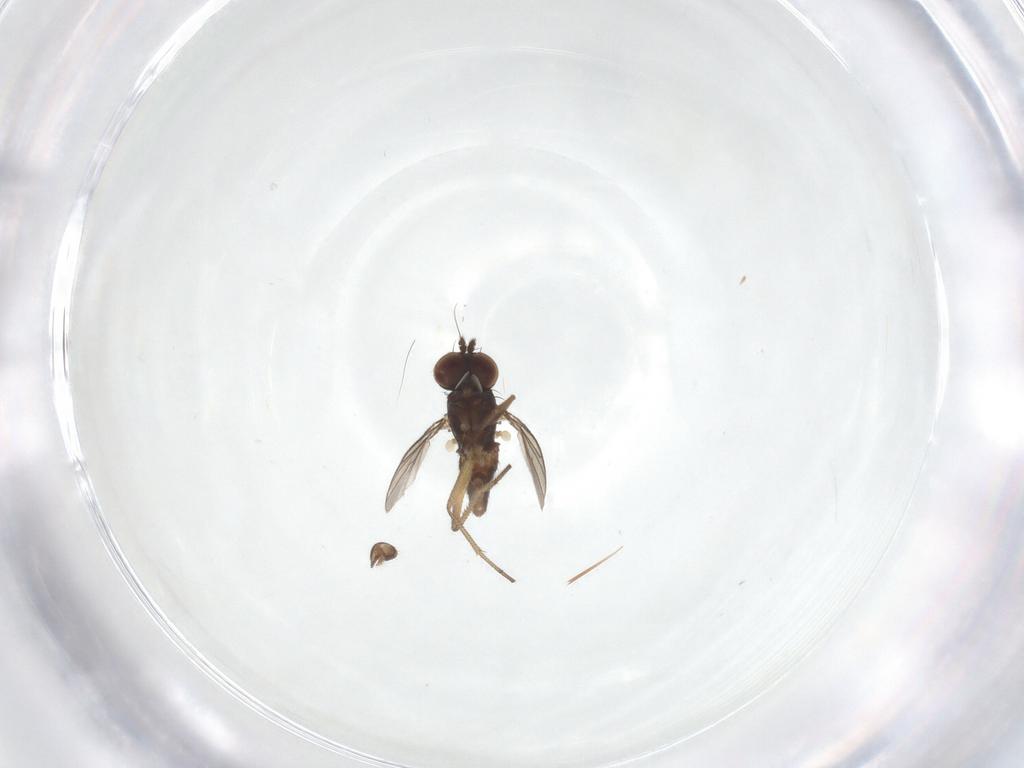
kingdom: Animalia
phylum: Arthropoda
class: Insecta
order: Diptera
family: Dolichopodidae
